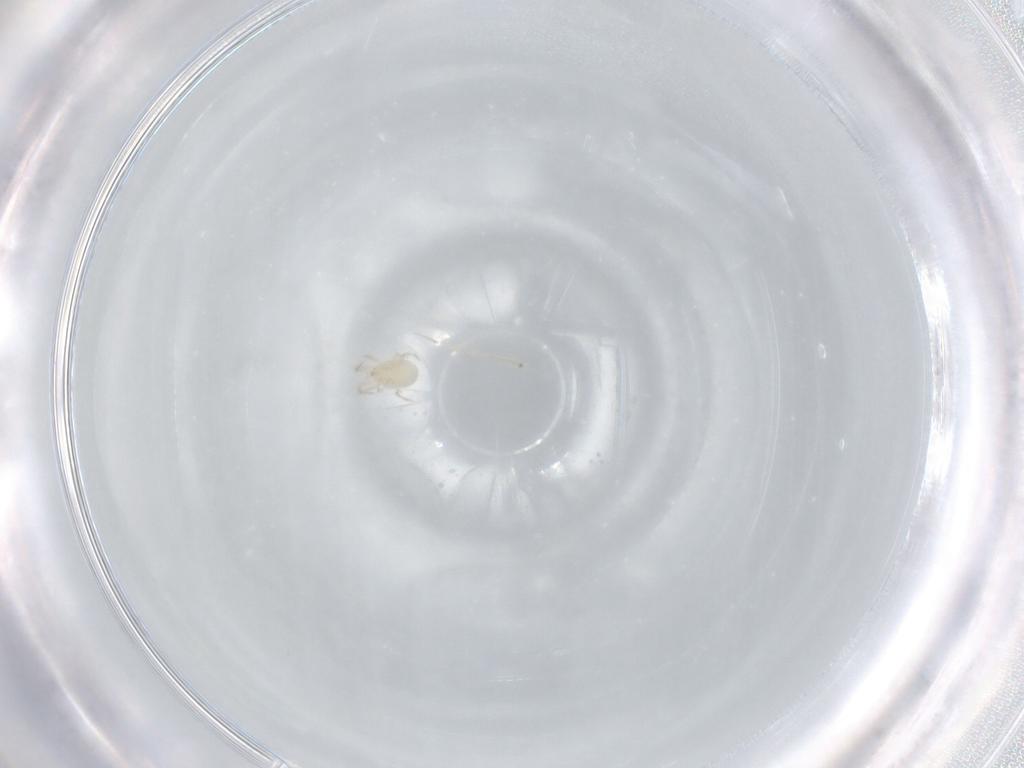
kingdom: Animalia
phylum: Arthropoda
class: Arachnida
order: Mesostigmata
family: Phytoseiidae
